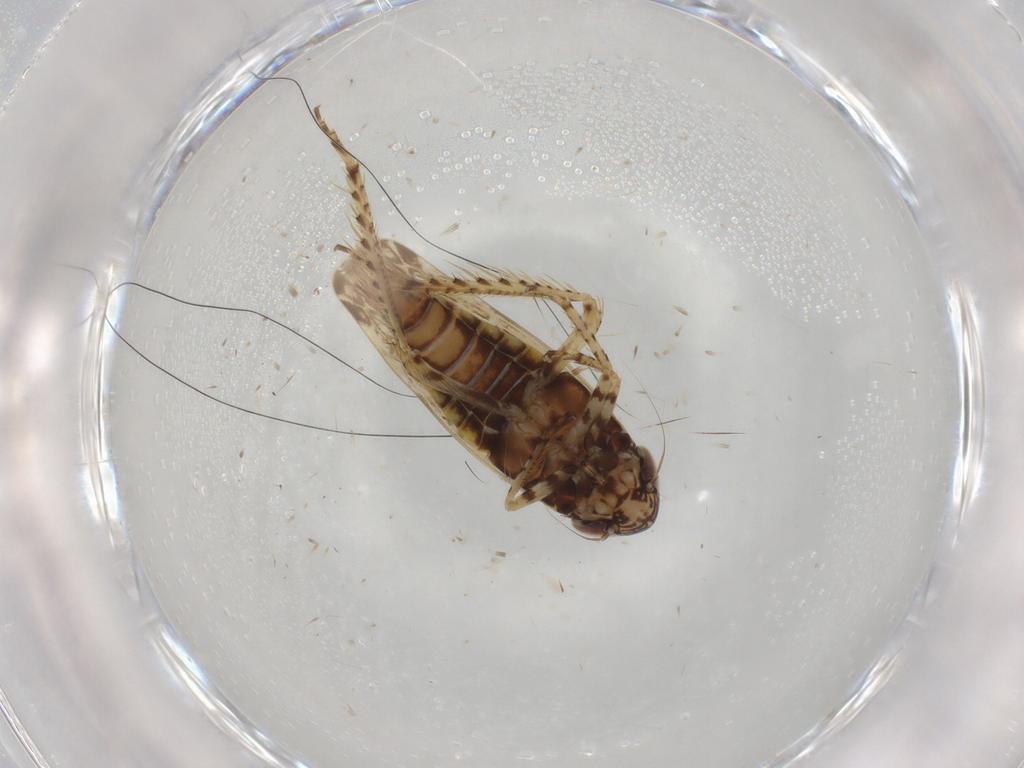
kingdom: Animalia
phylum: Arthropoda
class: Insecta
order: Hemiptera
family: Cicadellidae
